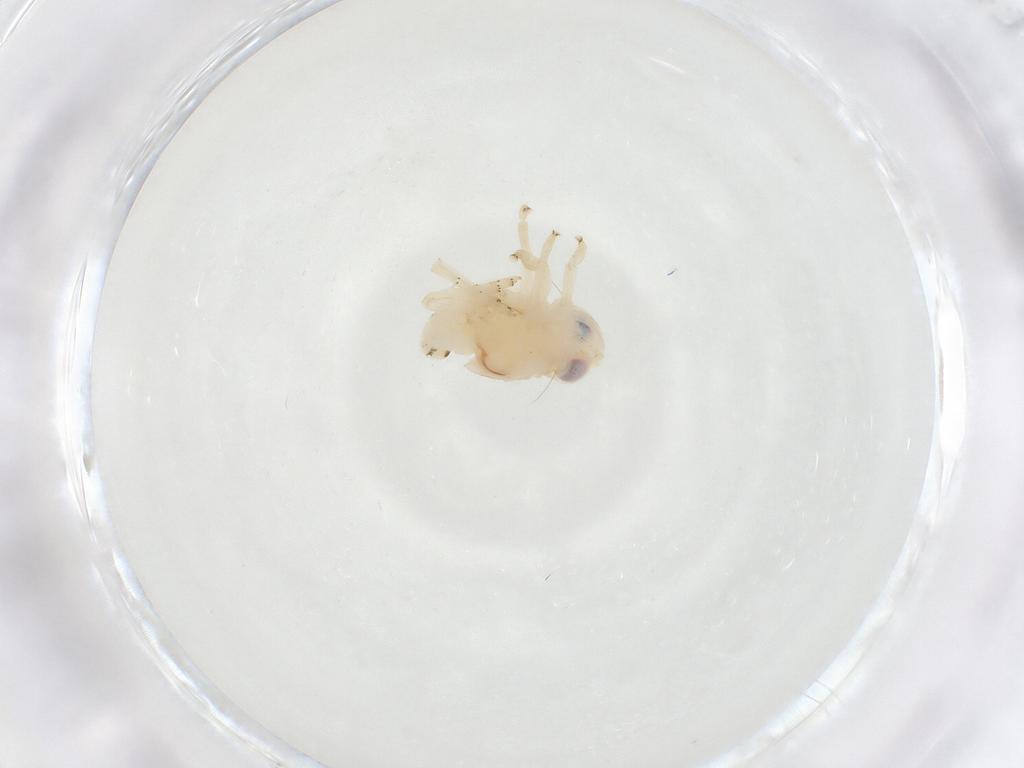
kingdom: Animalia
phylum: Arthropoda
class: Insecta
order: Hemiptera
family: Nogodinidae
